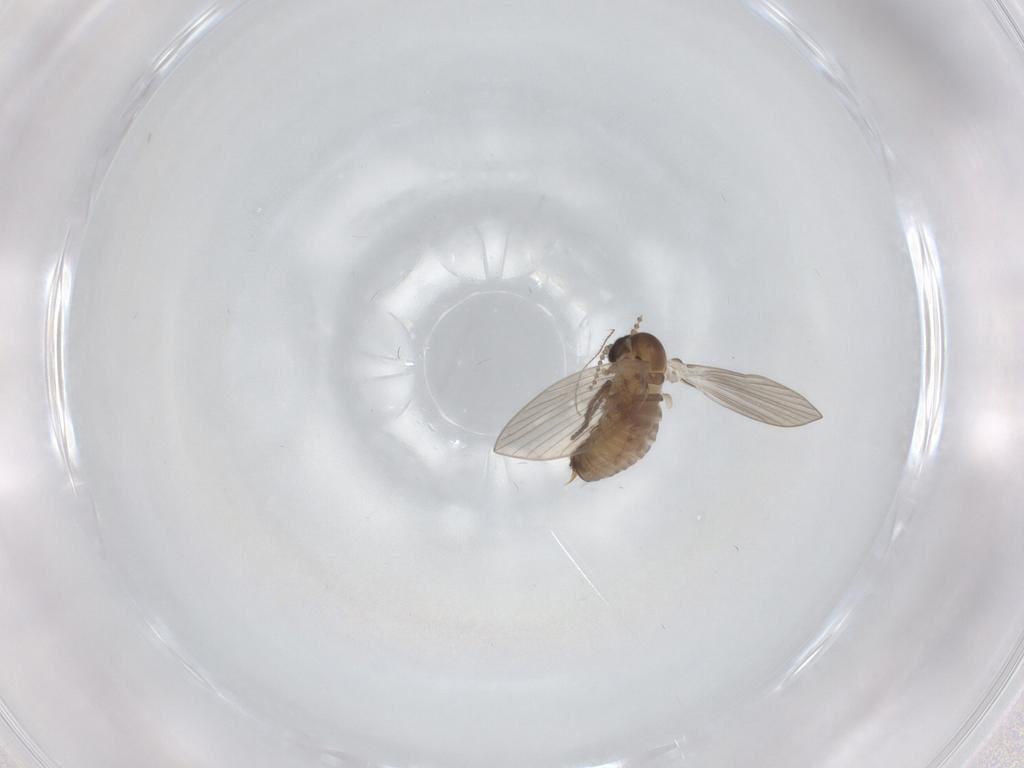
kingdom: Animalia
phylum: Arthropoda
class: Insecta
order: Diptera
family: Psychodidae
